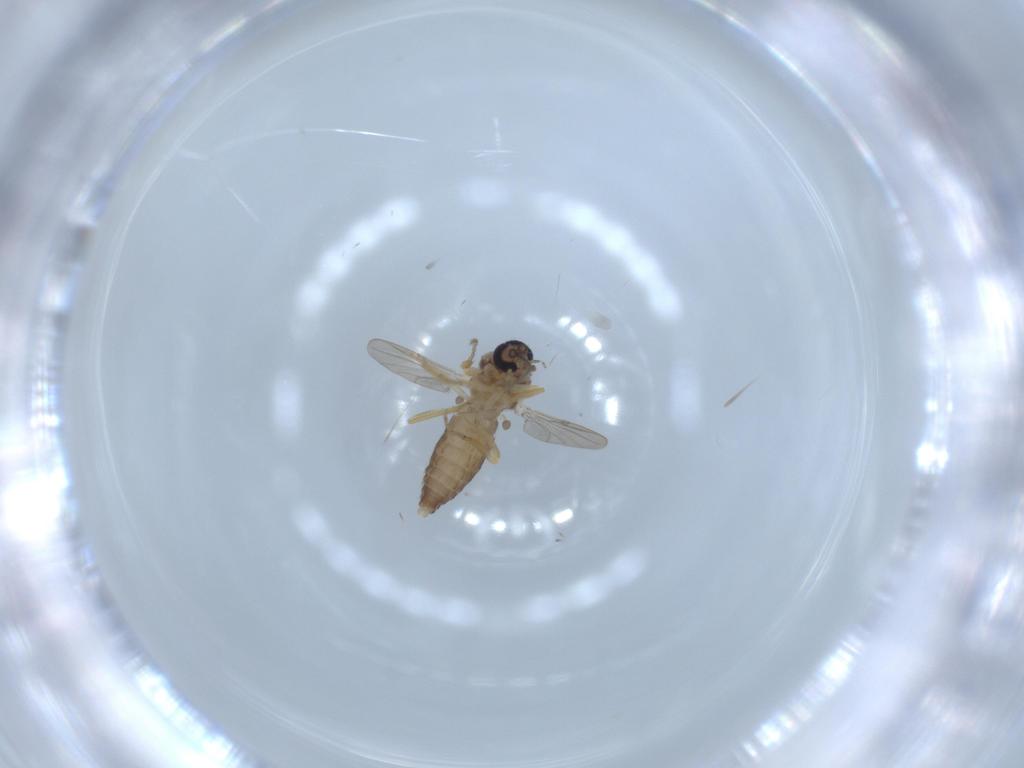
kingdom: Animalia
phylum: Arthropoda
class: Insecta
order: Diptera
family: Ceratopogonidae
